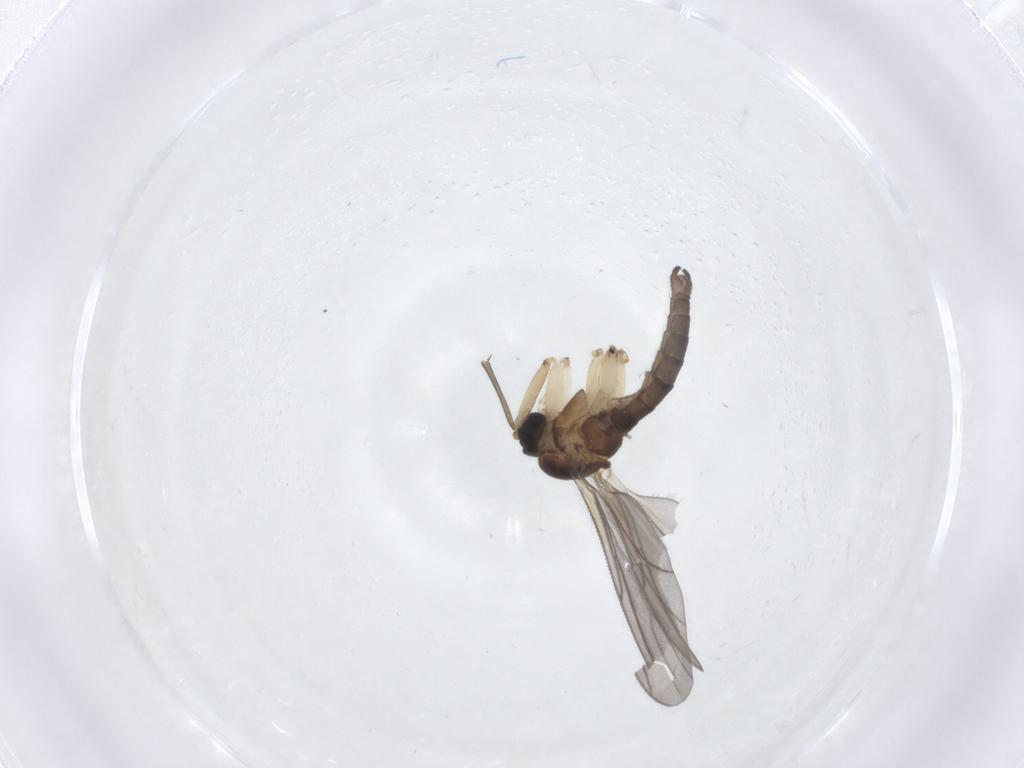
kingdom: Animalia
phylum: Arthropoda
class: Insecta
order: Diptera
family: Sciaridae
